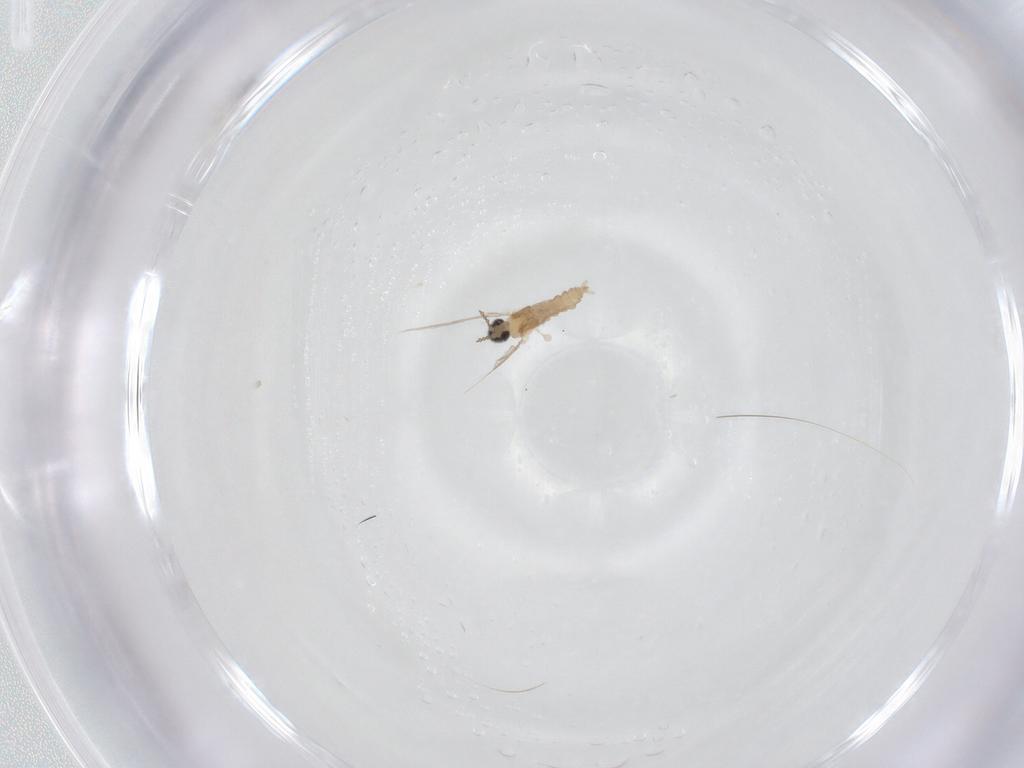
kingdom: Animalia
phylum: Arthropoda
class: Insecta
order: Diptera
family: Cecidomyiidae
